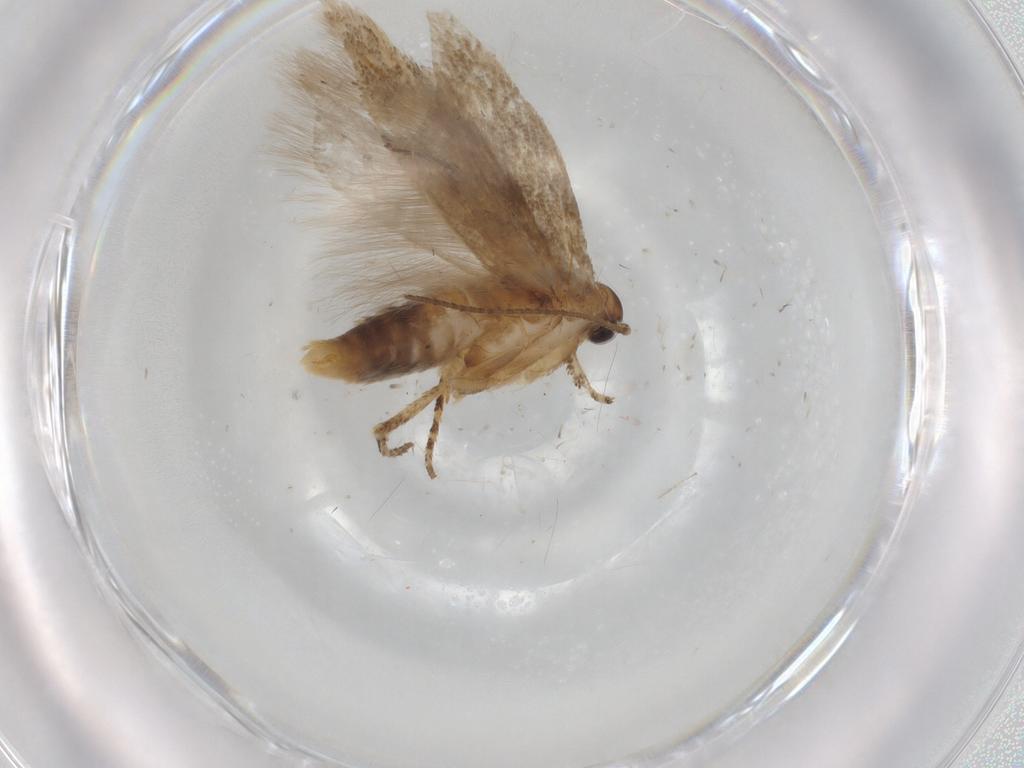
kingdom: Animalia
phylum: Arthropoda
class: Insecta
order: Lepidoptera
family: Gelechiidae
